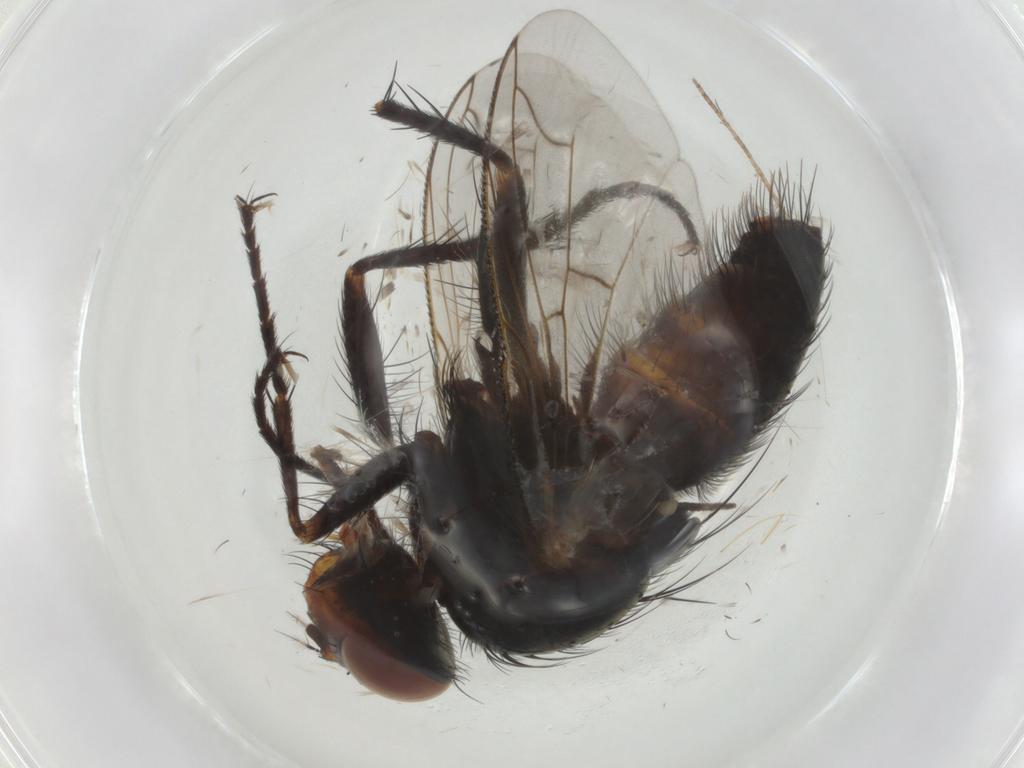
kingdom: Animalia
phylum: Arthropoda
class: Insecta
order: Diptera
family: Tachinidae
